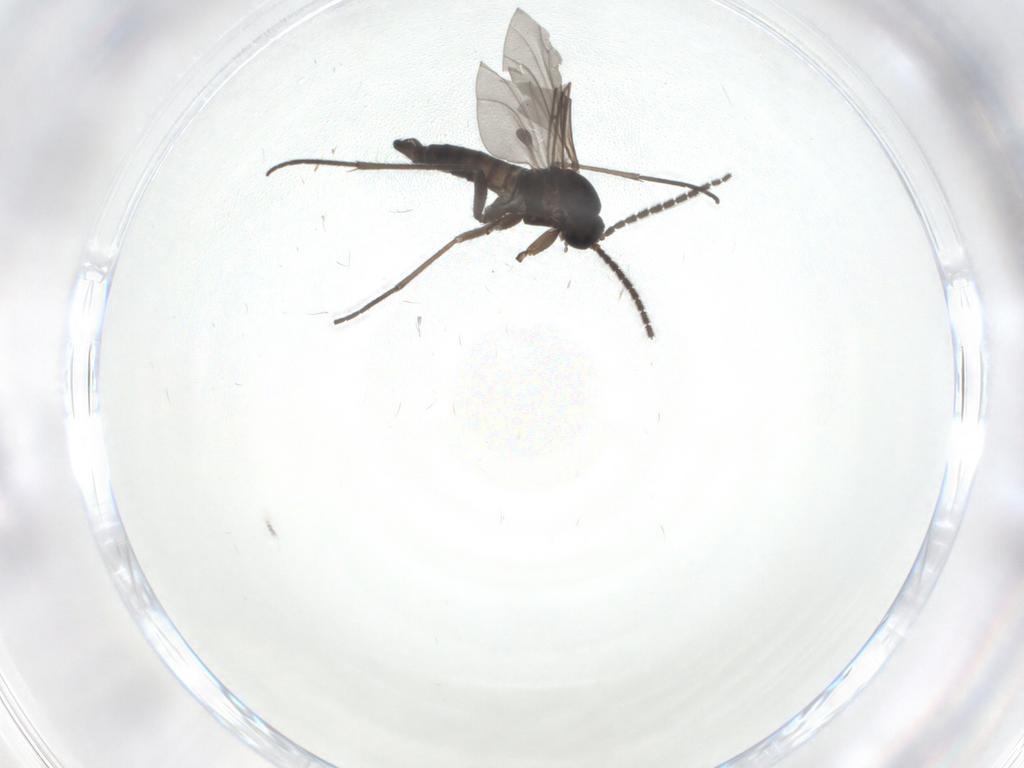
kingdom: Animalia
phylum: Arthropoda
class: Insecta
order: Diptera
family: Sciaridae
